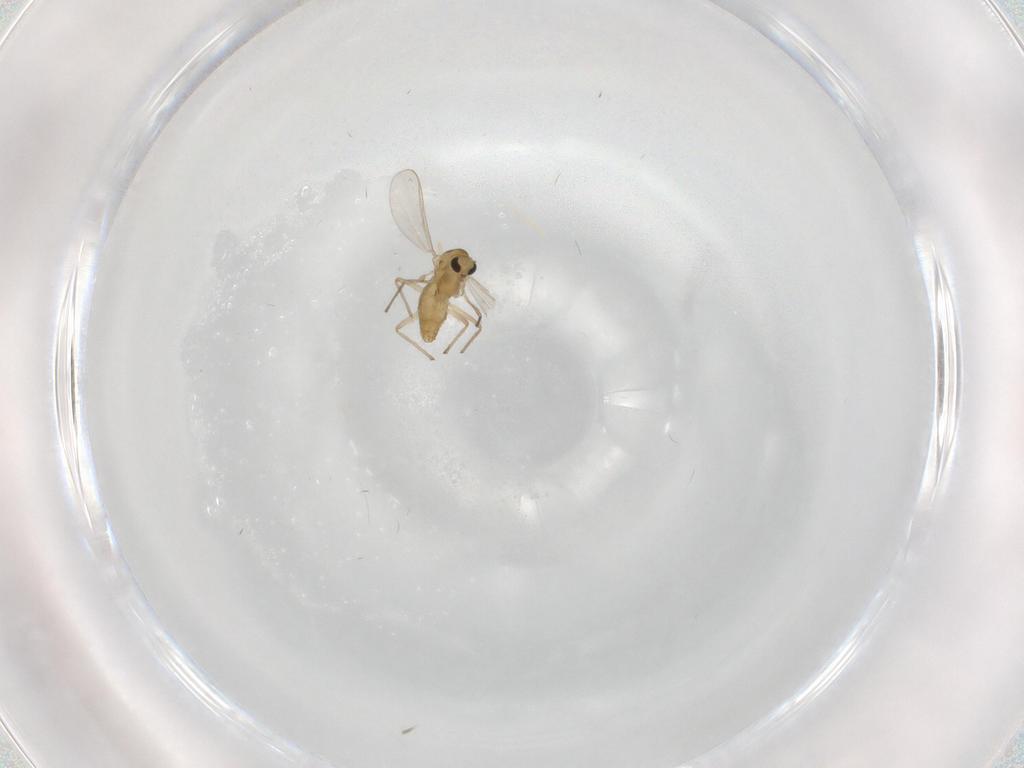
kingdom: Animalia
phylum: Arthropoda
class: Insecta
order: Diptera
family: Chironomidae
